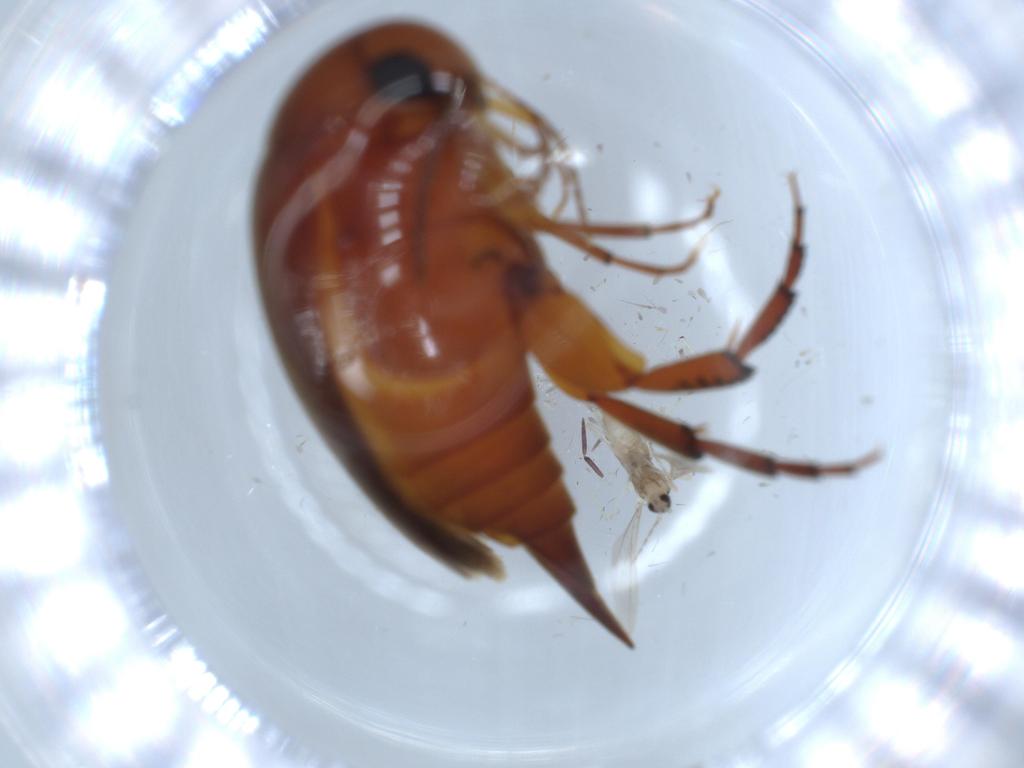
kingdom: Animalia
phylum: Arthropoda
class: Insecta
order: Coleoptera
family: Mordellidae
